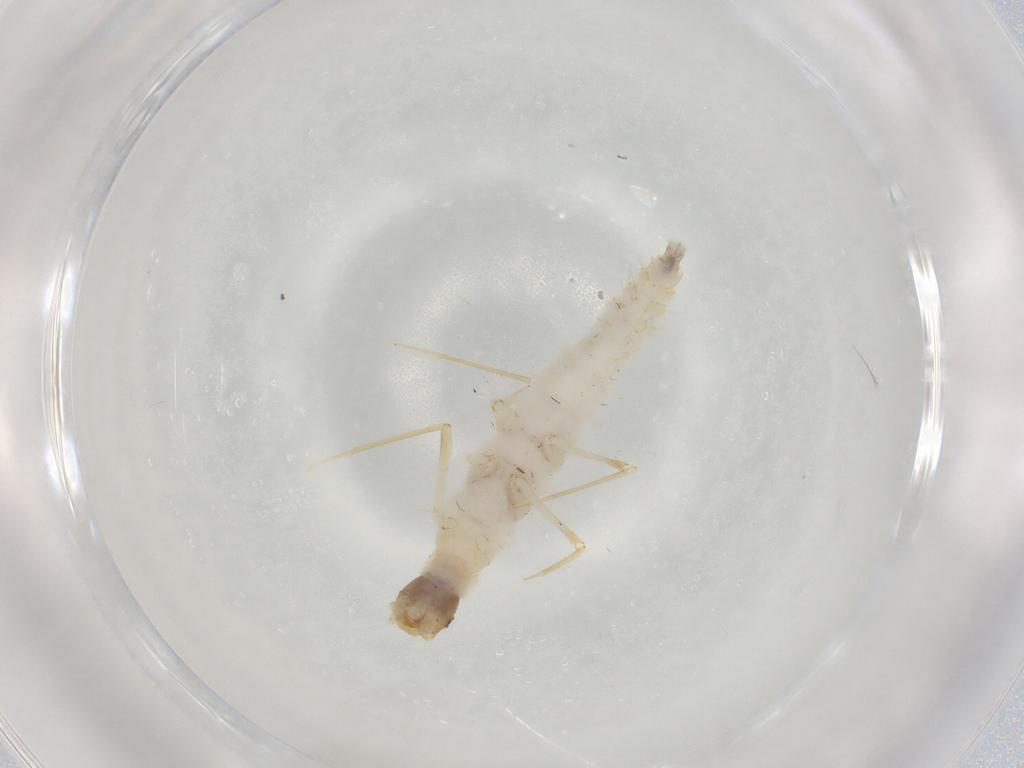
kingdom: Animalia
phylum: Arthropoda
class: Insecta
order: Coleoptera
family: Staphylinidae
